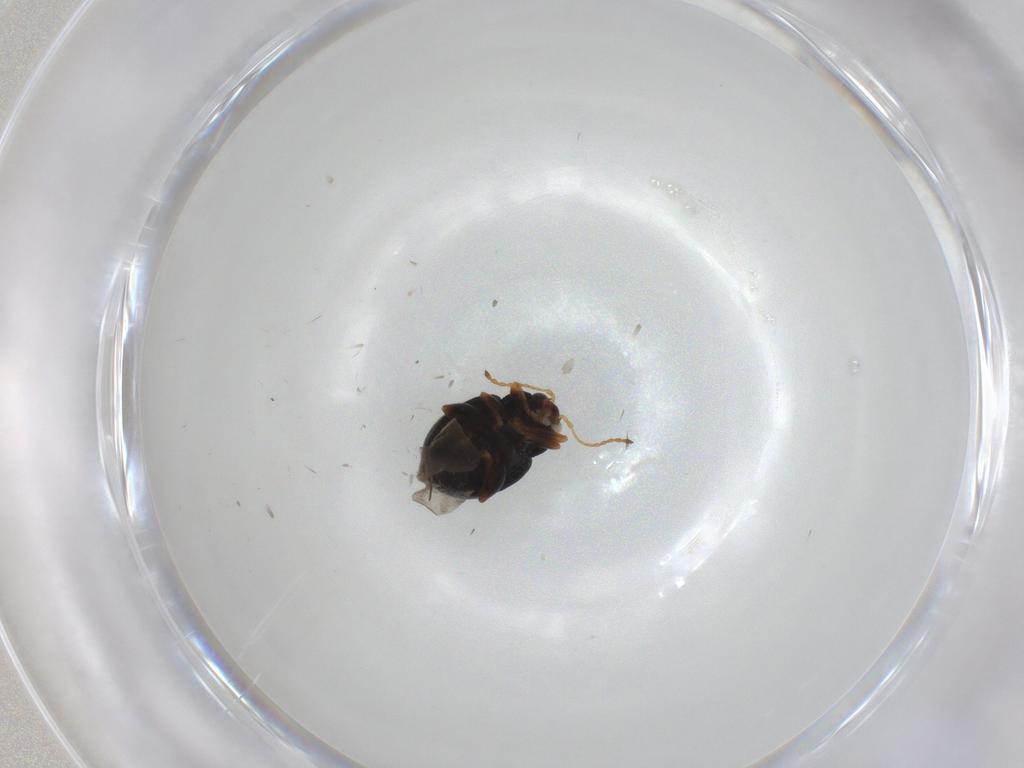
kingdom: Animalia
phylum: Arthropoda
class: Insecta
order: Coleoptera
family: Chrysomelidae
